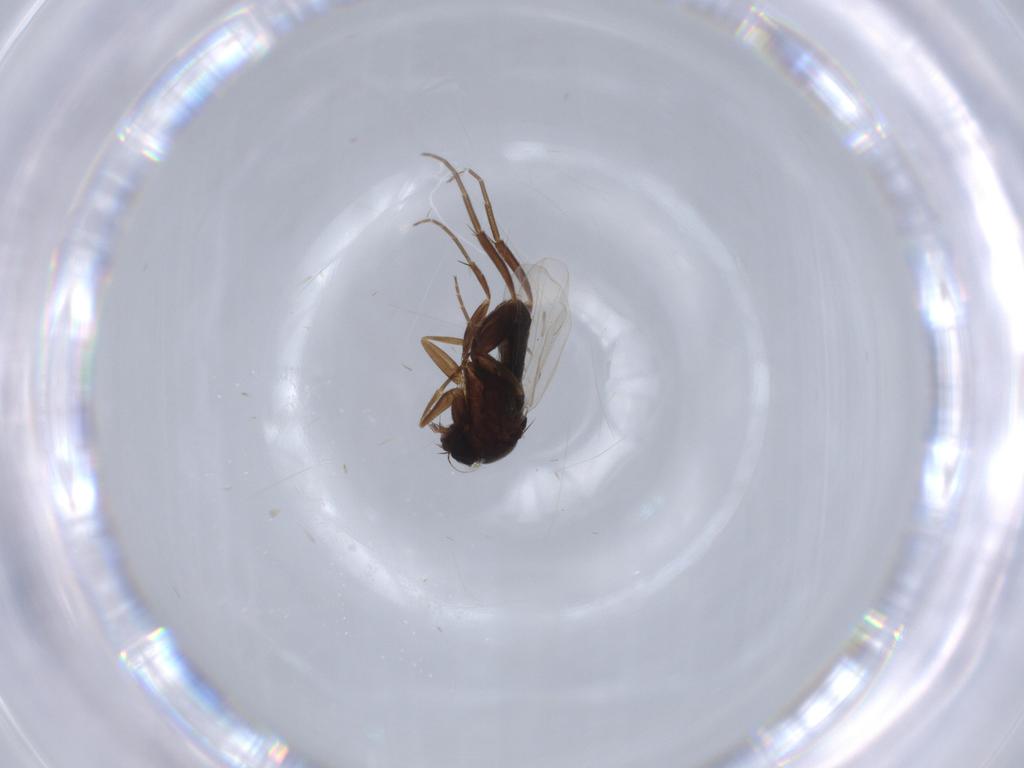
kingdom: Animalia
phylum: Arthropoda
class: Insecta
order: Diptera
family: Phoridae
